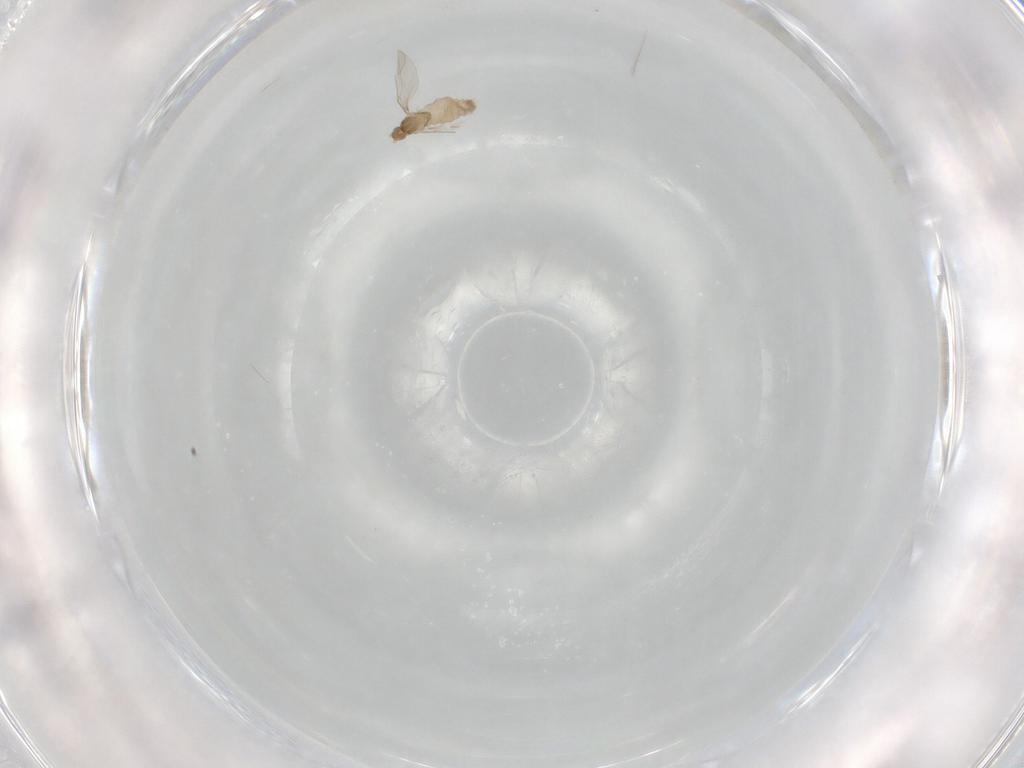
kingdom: Animalia
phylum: Arthropoda
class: Insecta
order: Diptera
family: Cecidomyiidae
